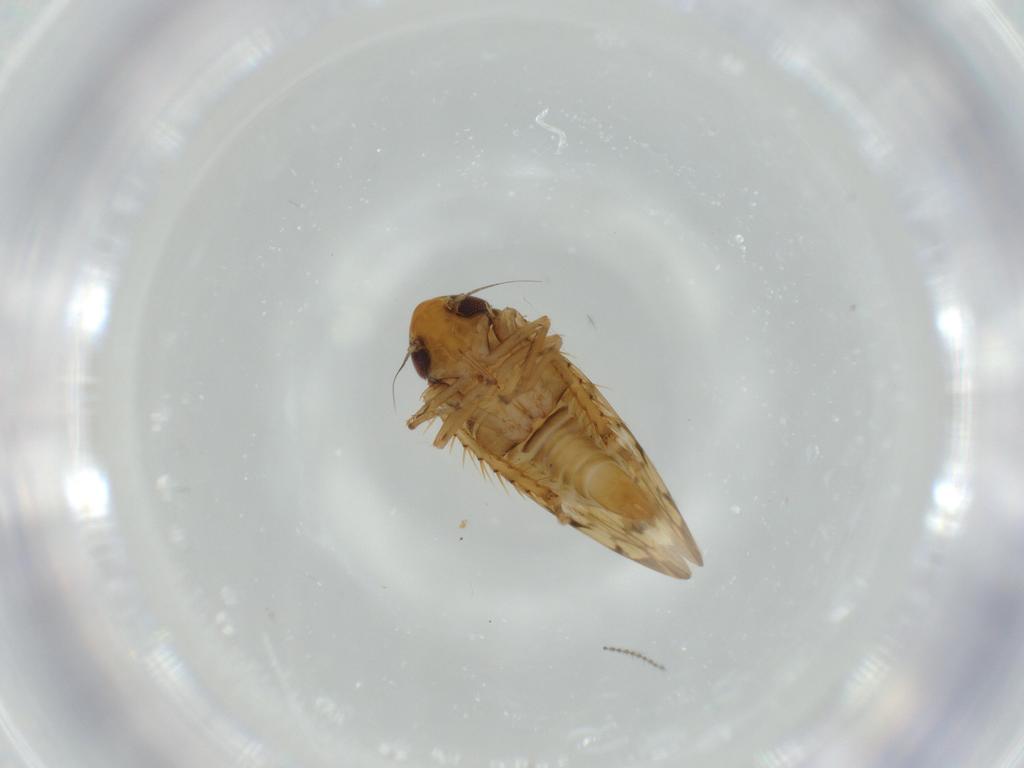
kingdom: Animalia
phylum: Arthropoda
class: Insecta
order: Hemiptera
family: Cicadellidae
